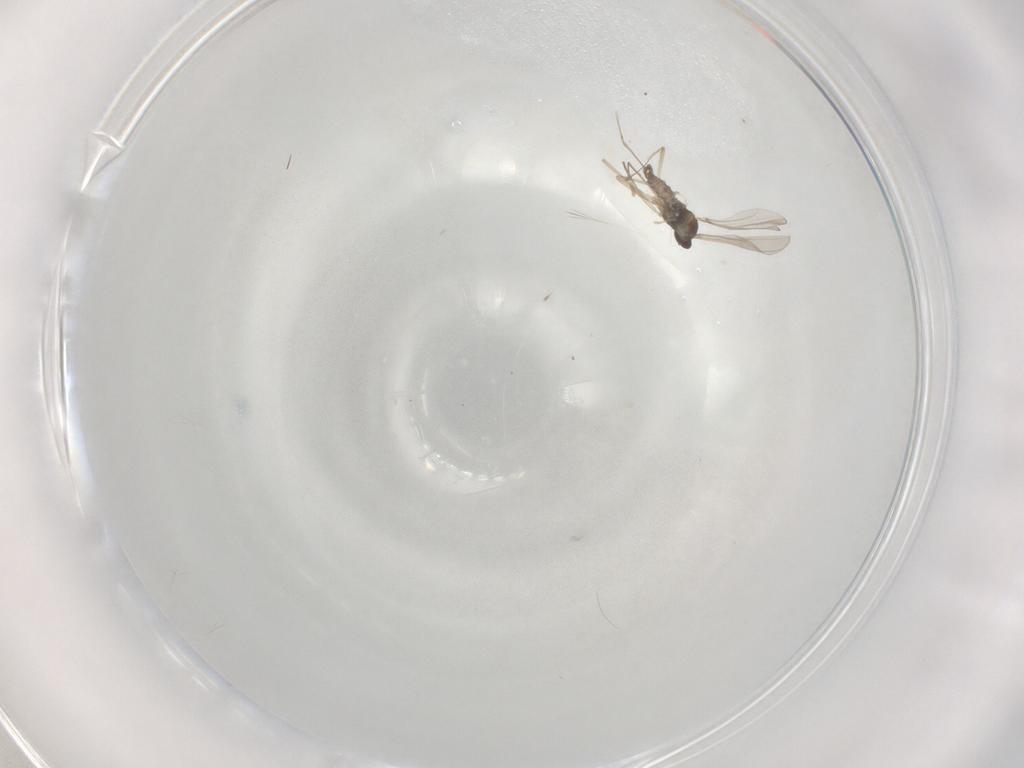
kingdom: Animalia
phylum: Arthropoda
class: Insecta
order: Diptera
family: Cecidomyiidae
